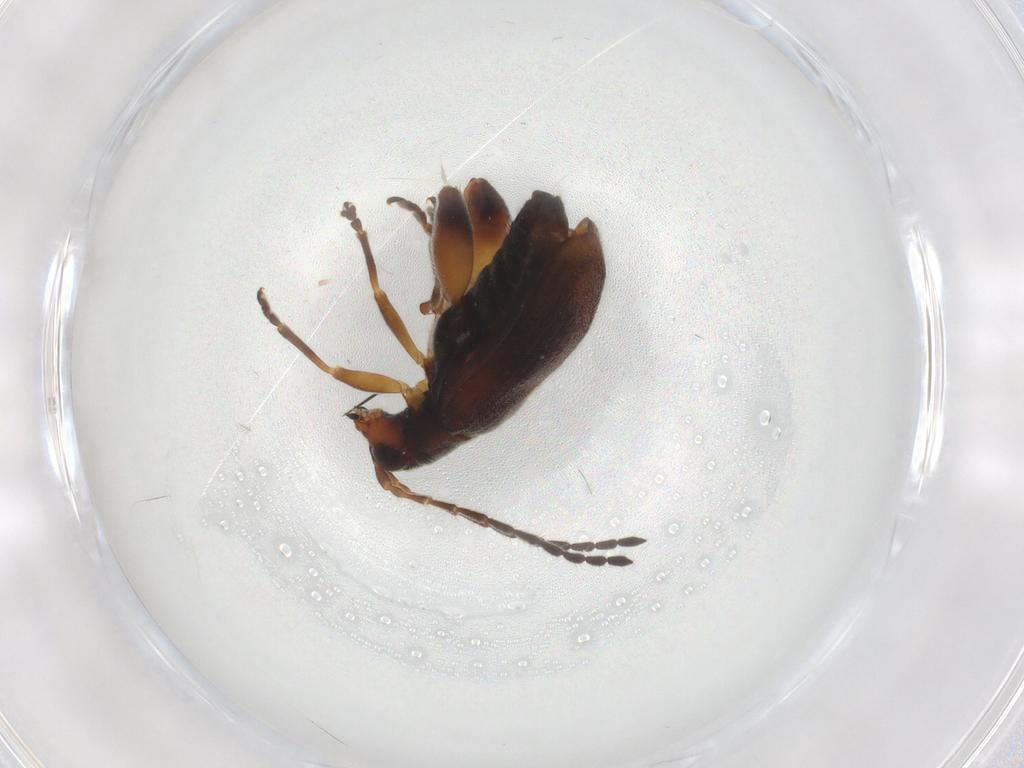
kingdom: Animalia
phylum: Arthropoda
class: Insecta
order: Coleoptera
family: Chrysomelidae
